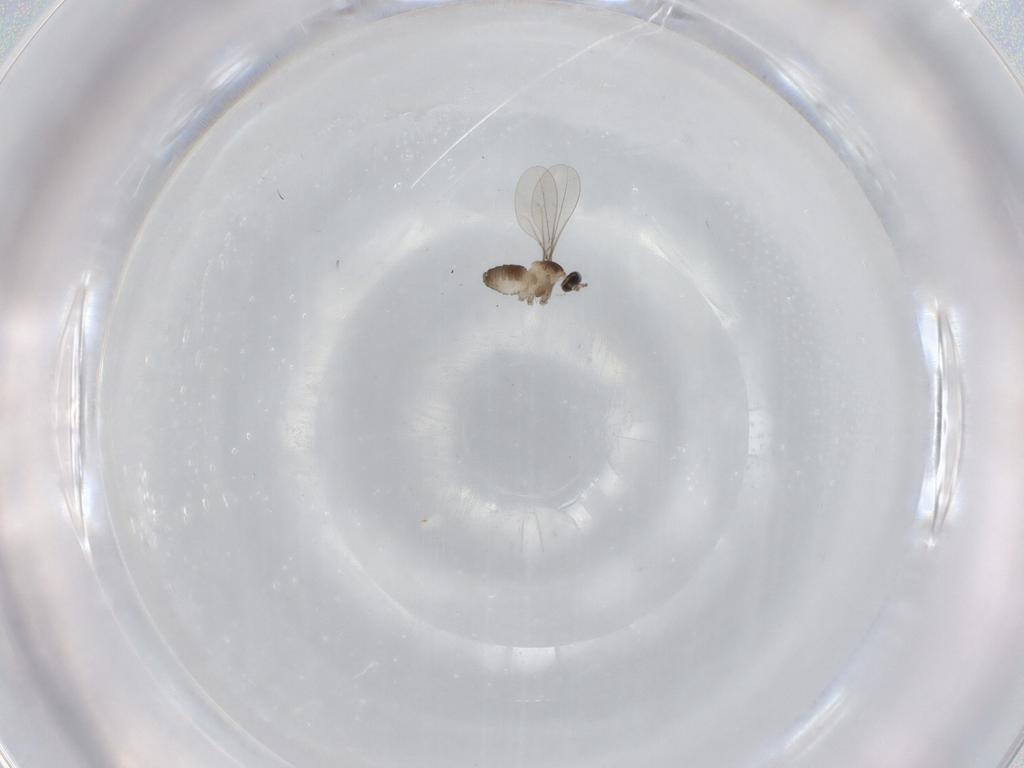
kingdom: Animalia
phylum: Arthropoda
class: Insecta
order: Diptera
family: Cecidomyiidae
